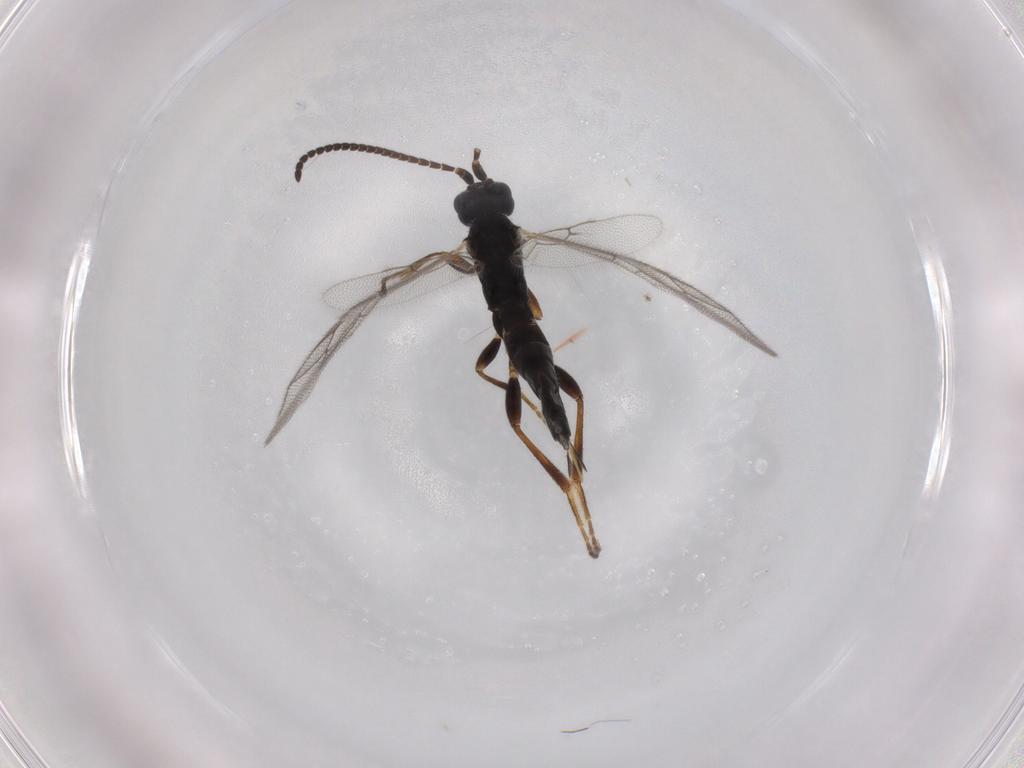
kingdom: Animalia
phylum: Arthropoda
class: Insecta
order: Hymenoptera
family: Ichneumonidae
